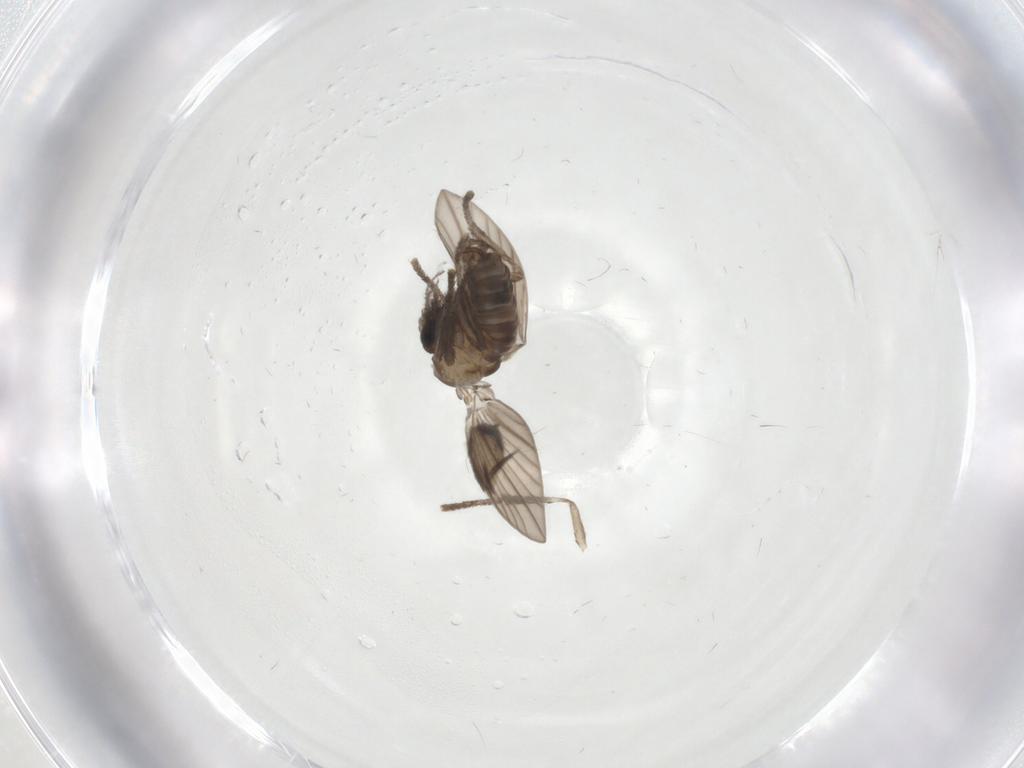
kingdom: Animalia
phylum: Arthropoda
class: Insecta
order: Diptera
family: Psychodidae
